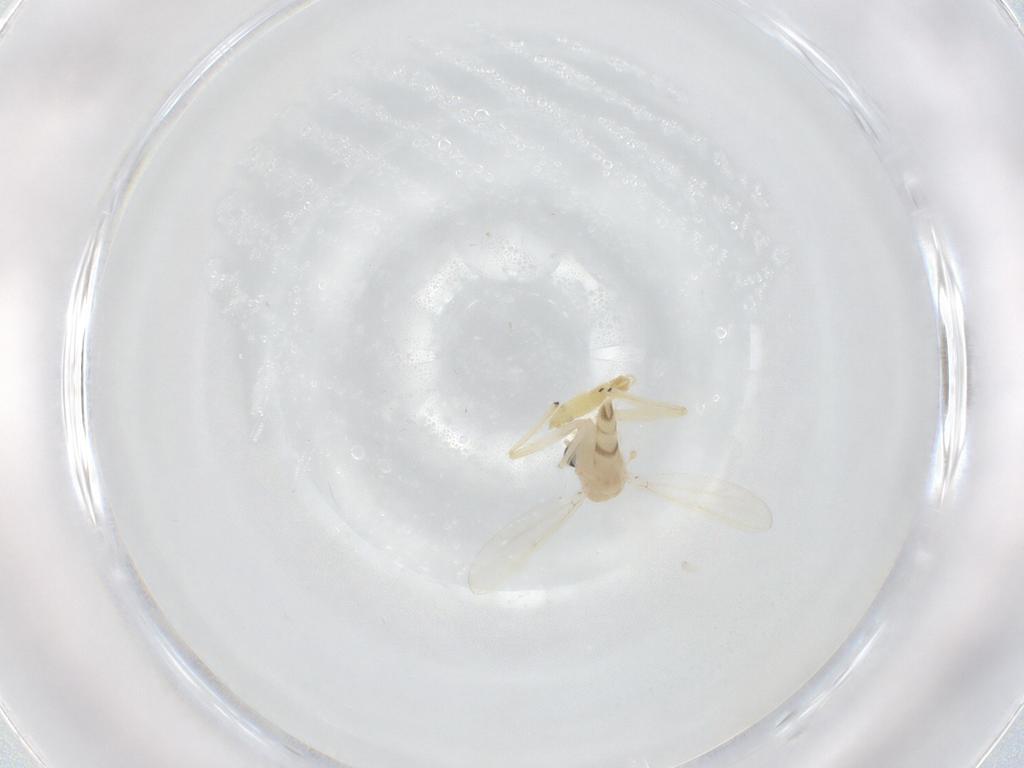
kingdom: Animalia
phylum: Arthropoda
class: Insecta
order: Diptera
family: Chironomidae
